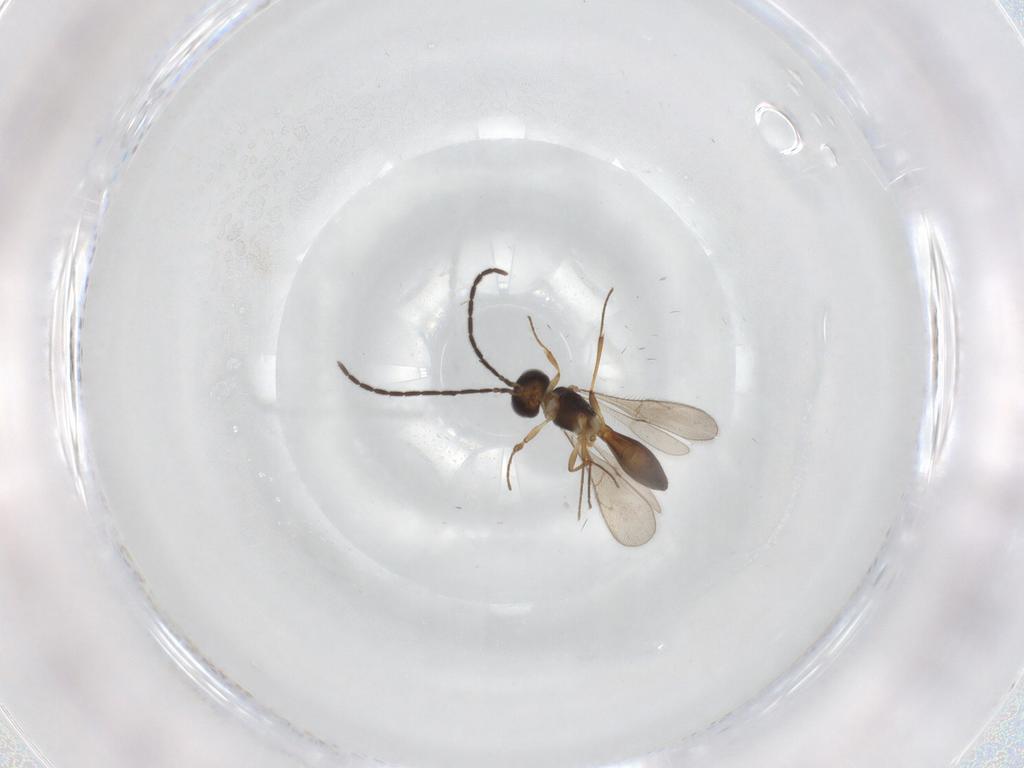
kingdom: Animalia
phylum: Arthropoda
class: Insecta
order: Hymenoptera
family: Scelionidae
